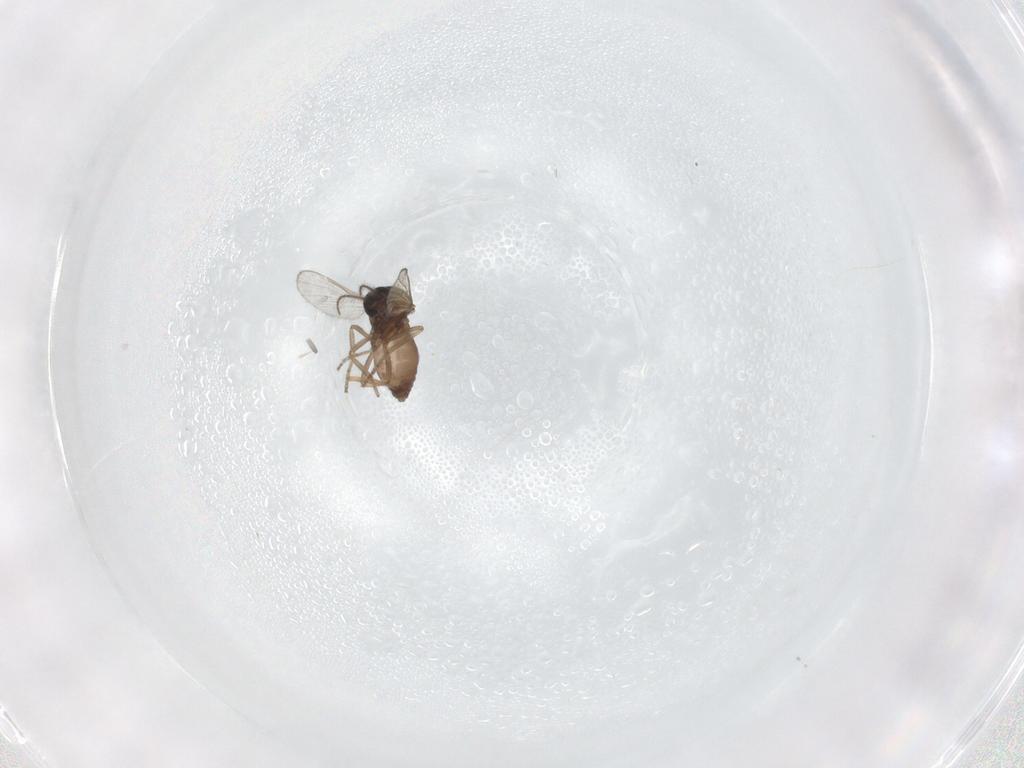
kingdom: Animalia
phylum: Arthropoda
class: Insecta
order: Diptera
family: Ceratopogonidae
